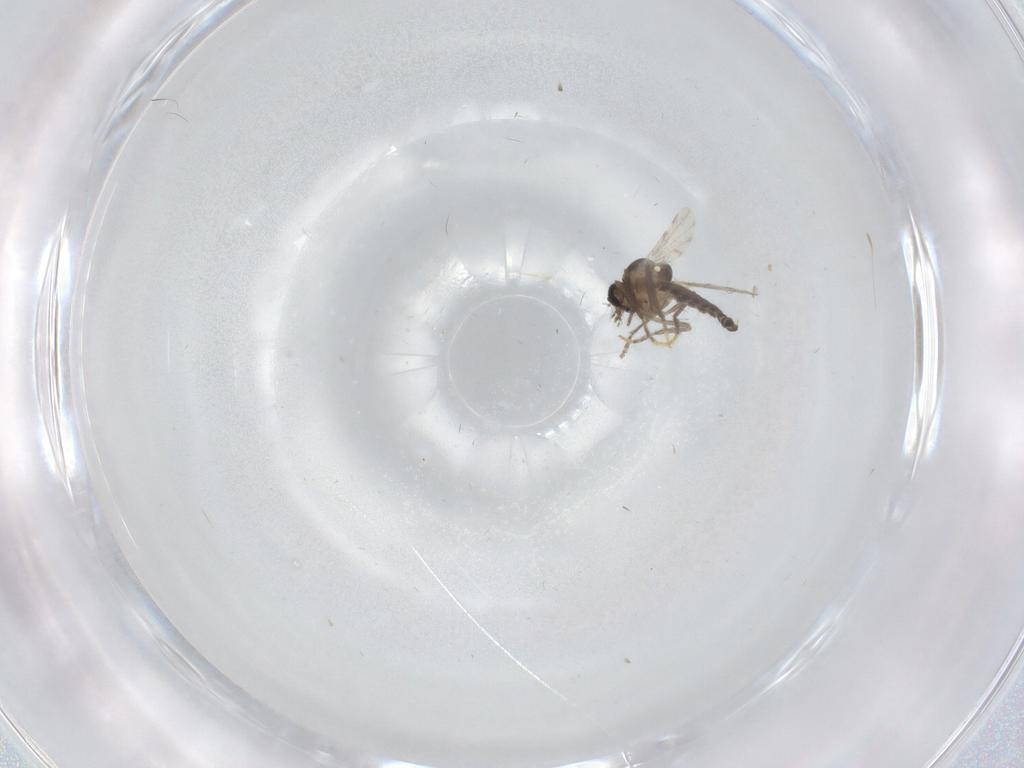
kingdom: Animalia
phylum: Arthropoda
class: Insecta
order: Diptera
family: Ceratopogonidae
